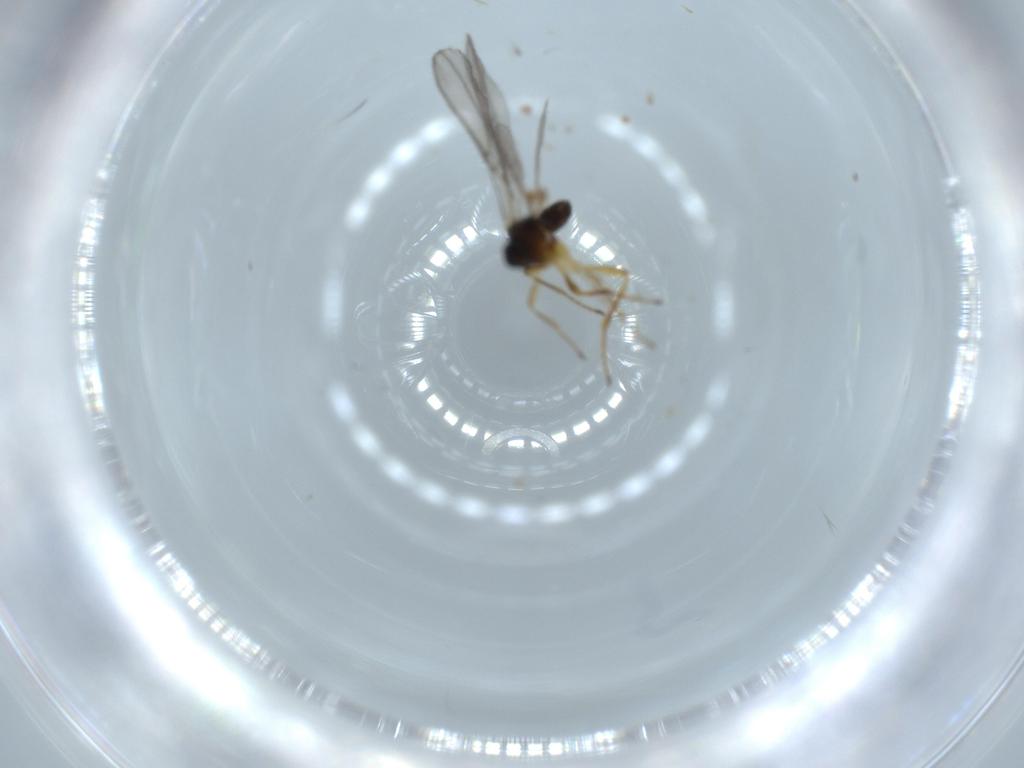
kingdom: Animalia
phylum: Arthropoda
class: Insecta
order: Hymenoptera
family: Braconidae
